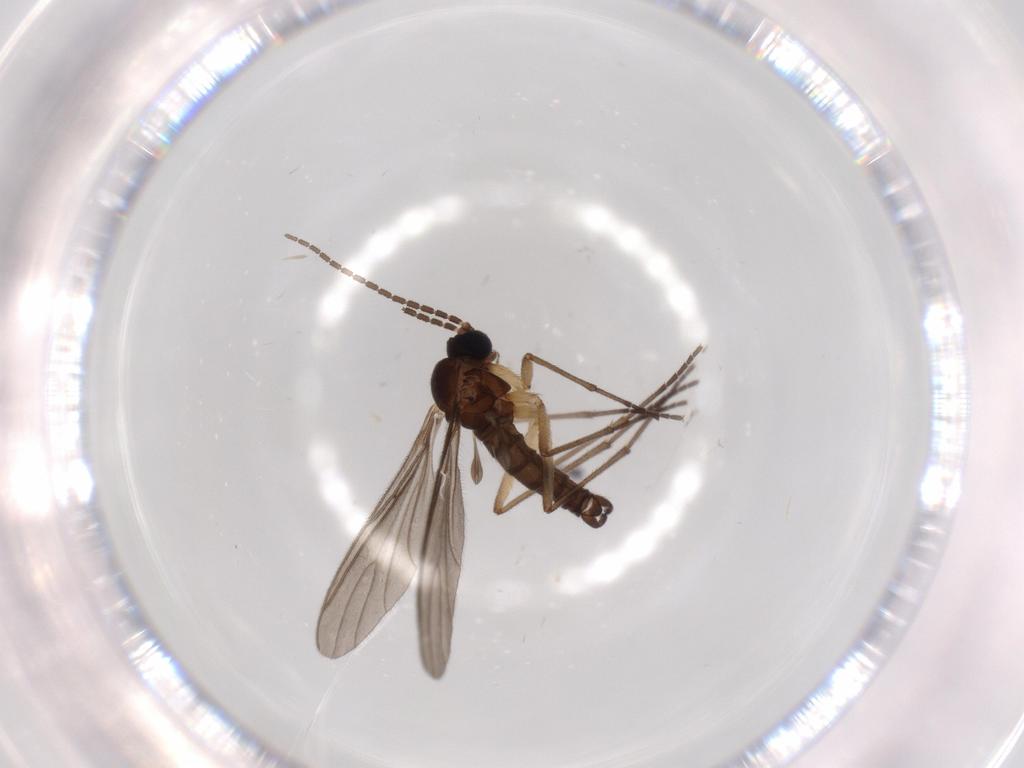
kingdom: Animalia
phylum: Arthropoda
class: Insecta
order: Diptera
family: Sciaridae
